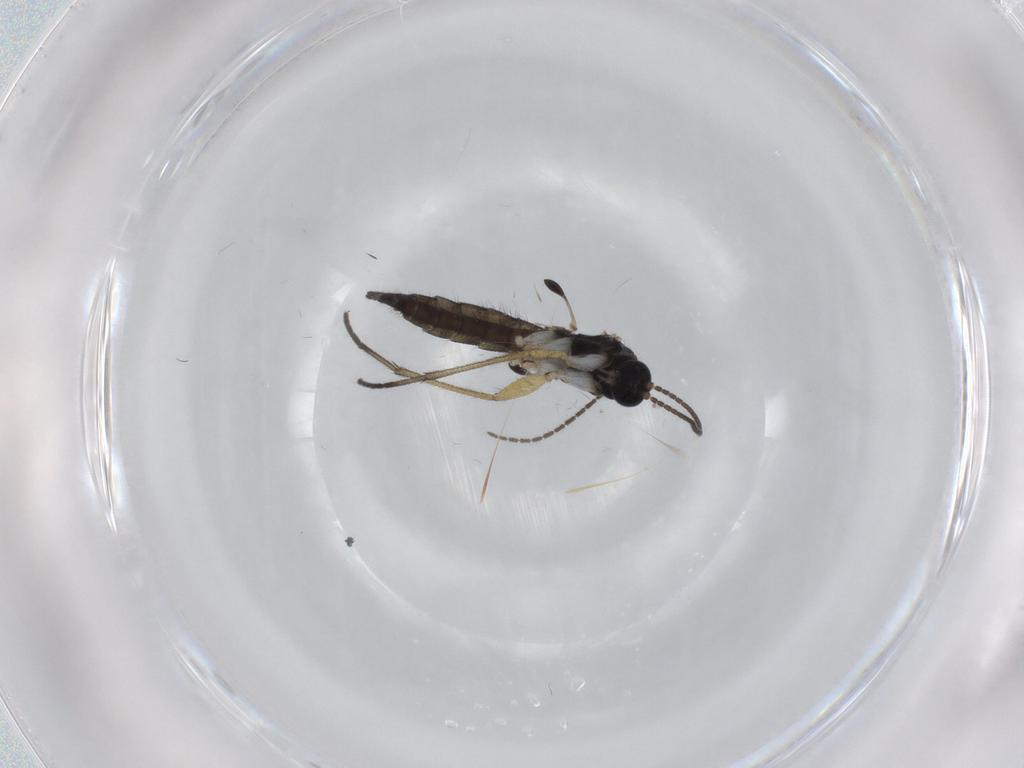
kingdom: Animalia
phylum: Arthropoda
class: Insecta
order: Diptera
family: Sciaridae
